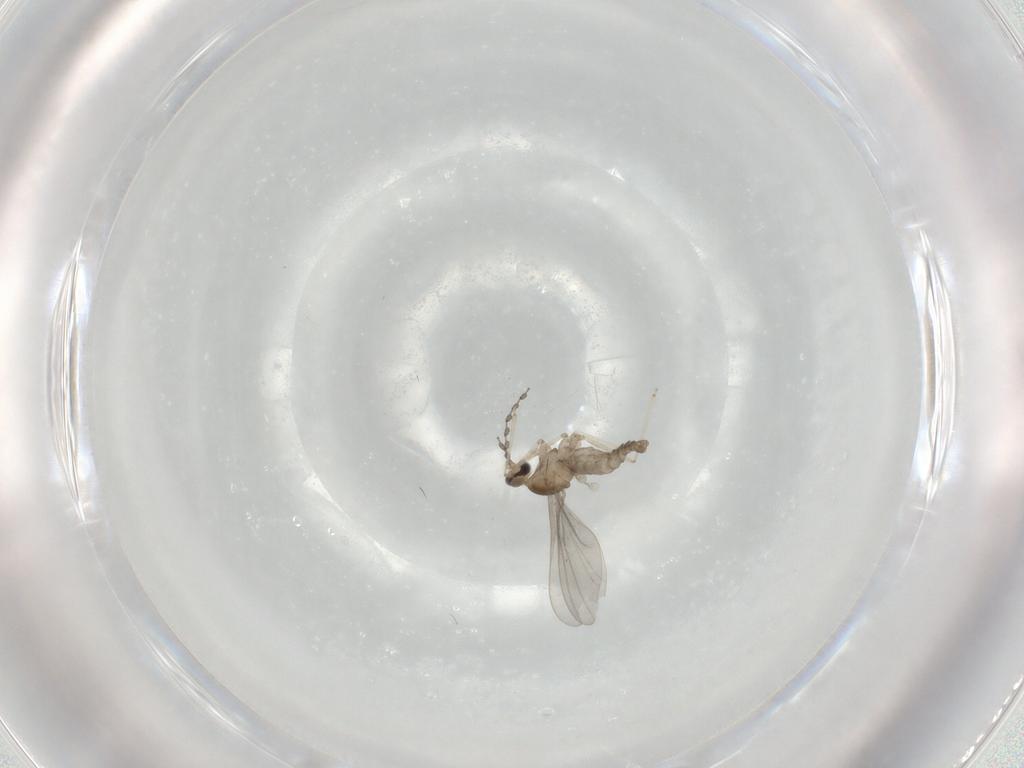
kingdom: Animalia
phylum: Arthropoda
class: Insecta
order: Diptera
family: Cecidomyiidae
